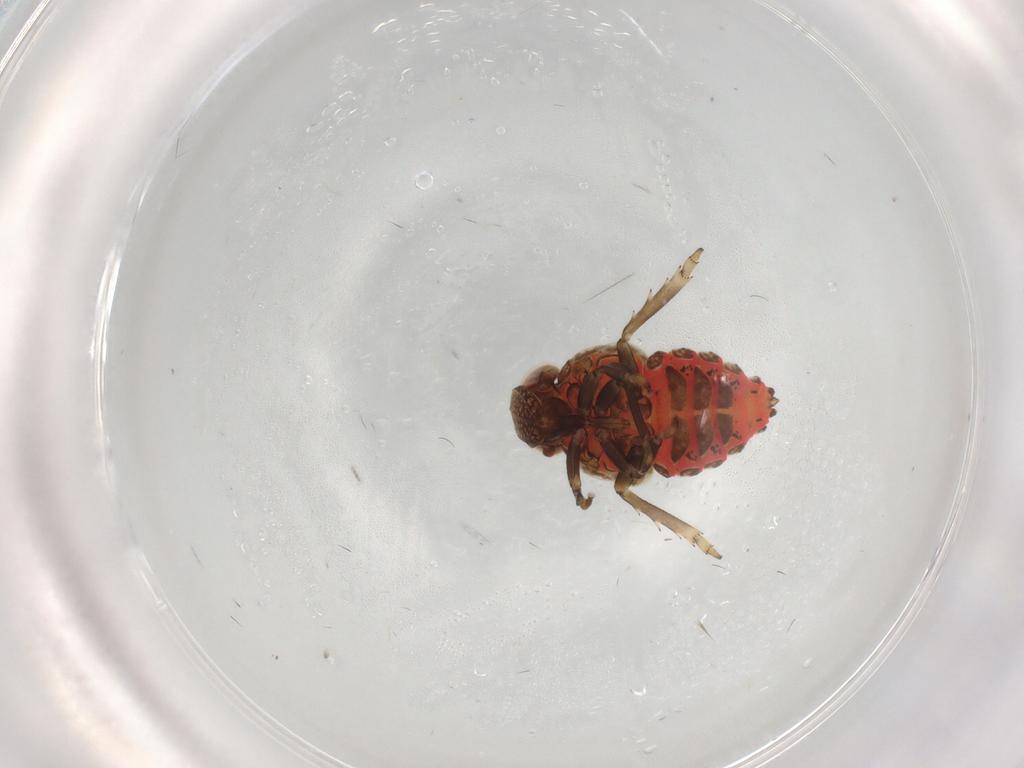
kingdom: Animalia
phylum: Arthropoda
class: Insecta
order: Hemiptera
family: Fulgoroidea_incertae_sedis
